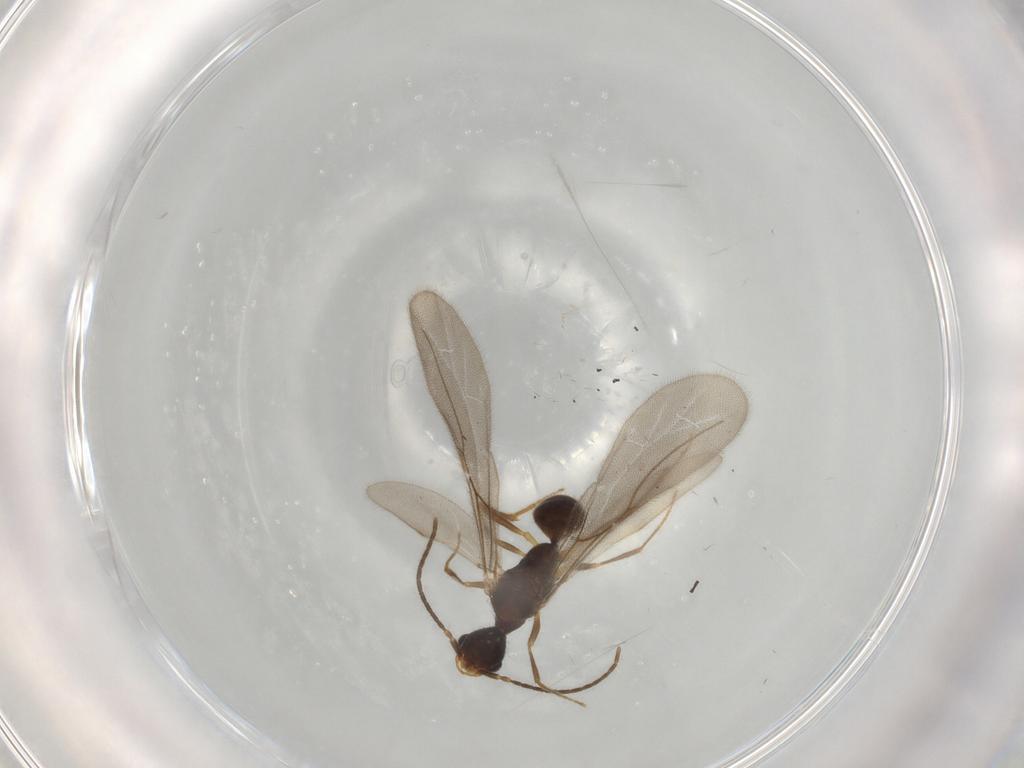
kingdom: Animalia
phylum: Arthropoda
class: Insecta
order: Hymenoptera
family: Bethylidae
